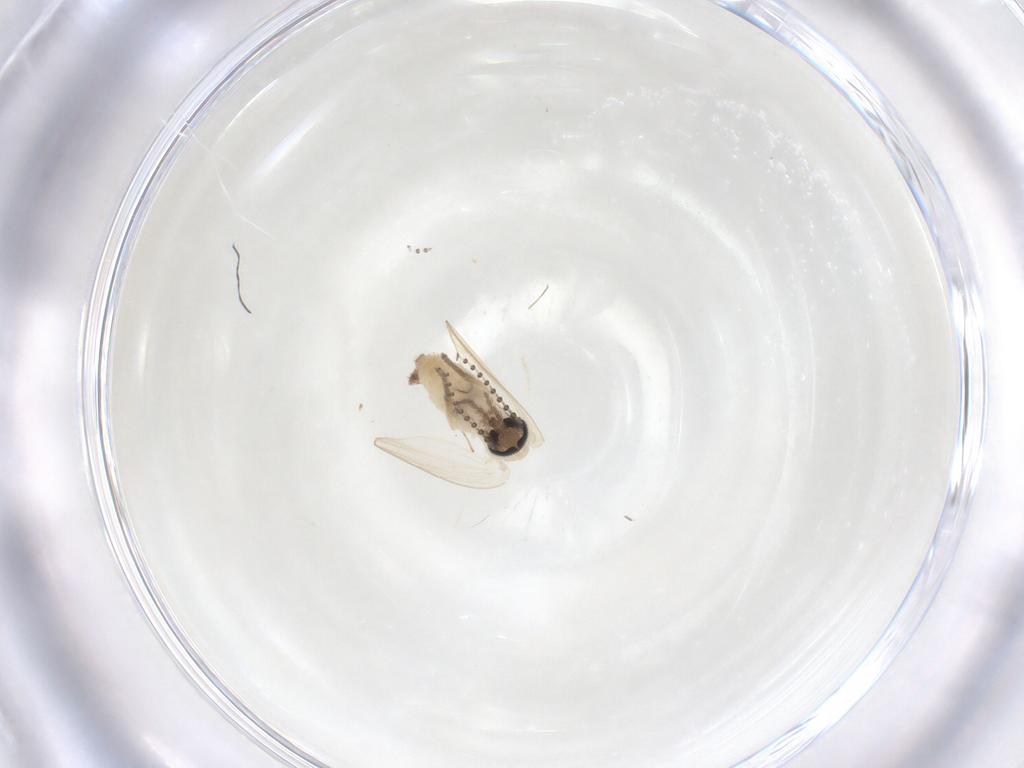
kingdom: Animalia
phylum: Arthropoda
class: Insecta
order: Diptera
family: Psychodidae
